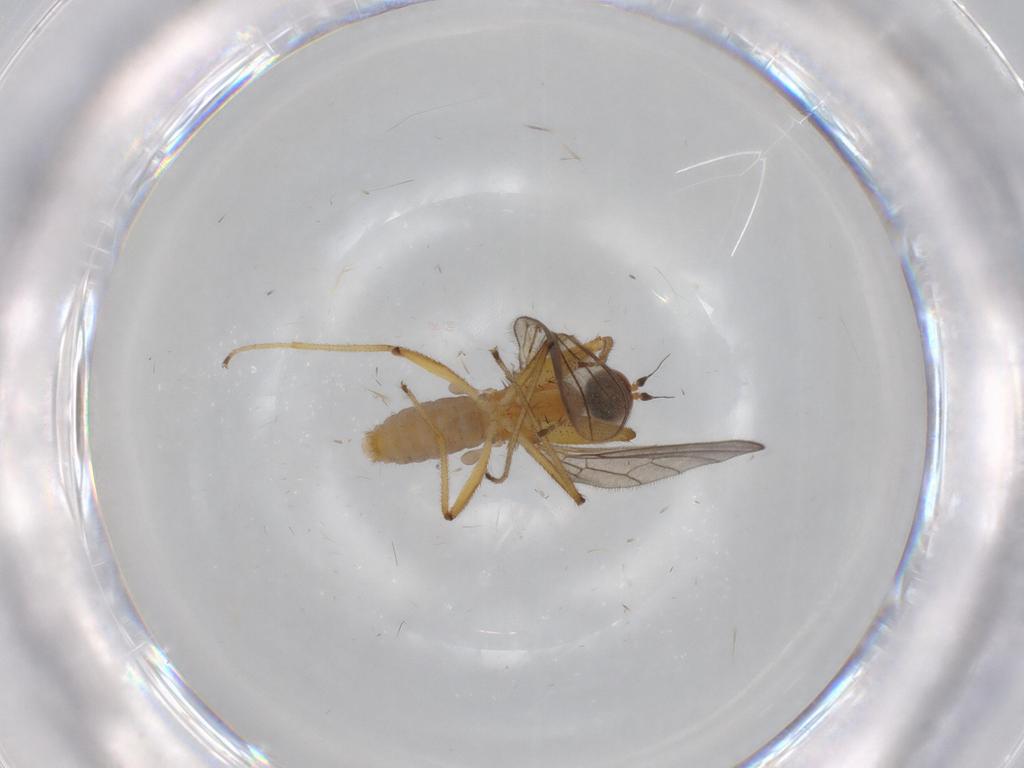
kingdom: Animalia
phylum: Arthropoda
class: Insecta
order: Diptera
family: Empididae
